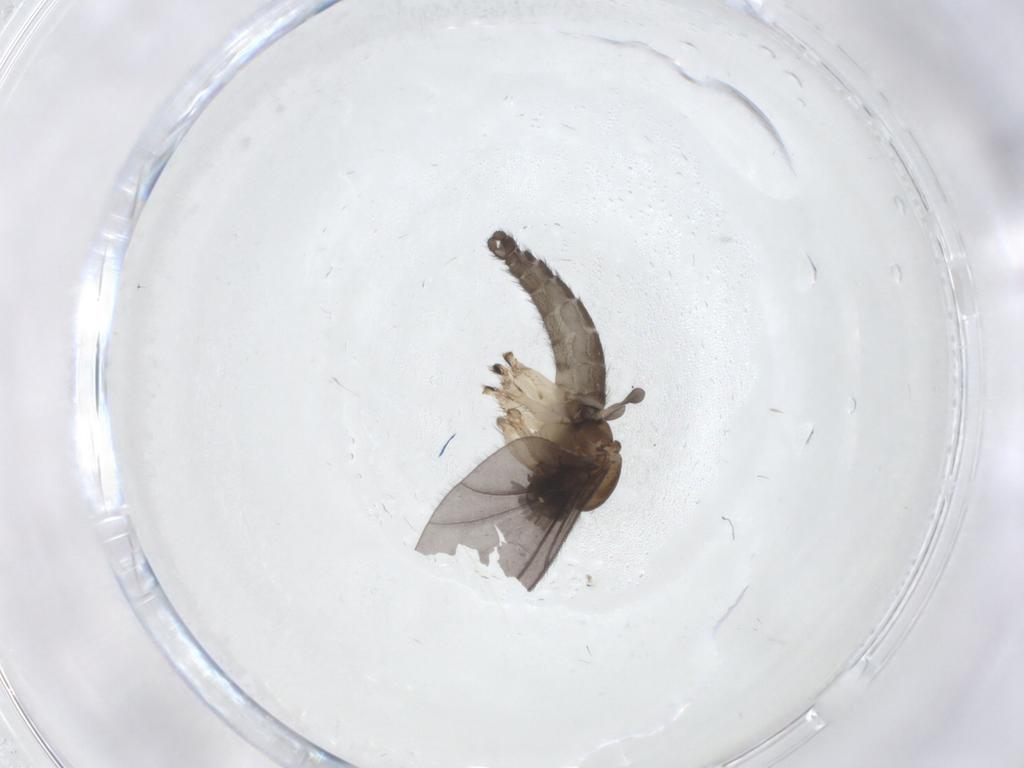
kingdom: Animalia
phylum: Arthropoda
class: Insecta
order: Diptera
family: Sciaridae
